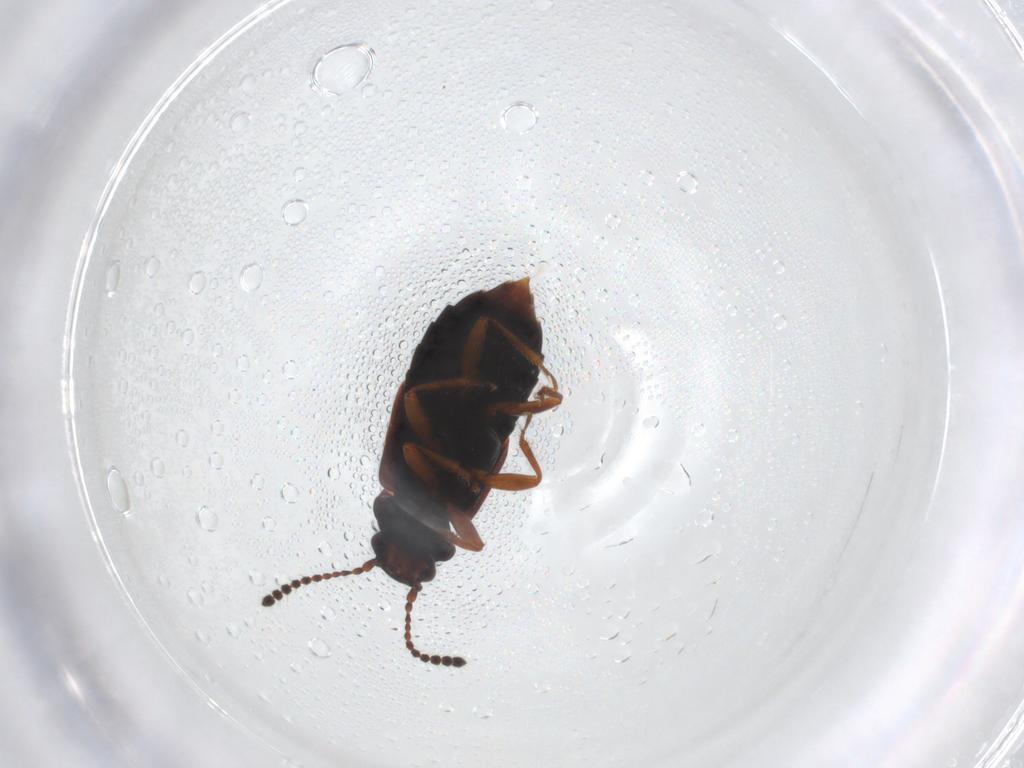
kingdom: Animalia
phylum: Arthropoda
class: Insecta
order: Coleoptera
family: Staphylinidae
